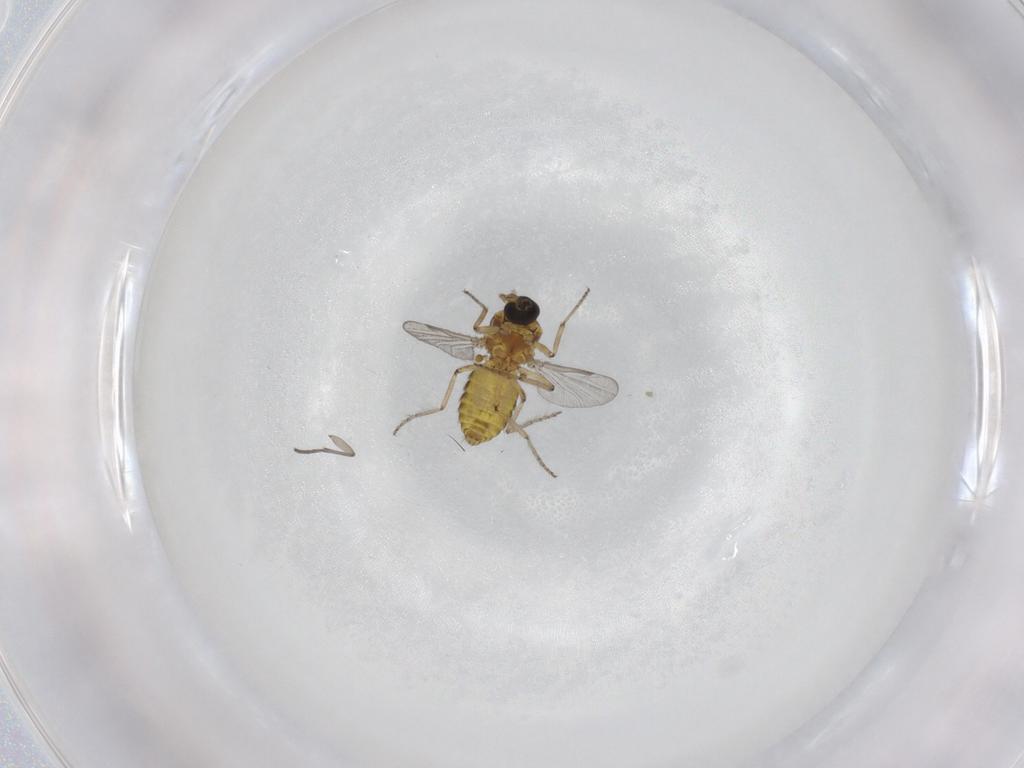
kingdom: Animalia
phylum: Arthropoda
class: Insecta
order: Diptera
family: Ceratopogonidae
